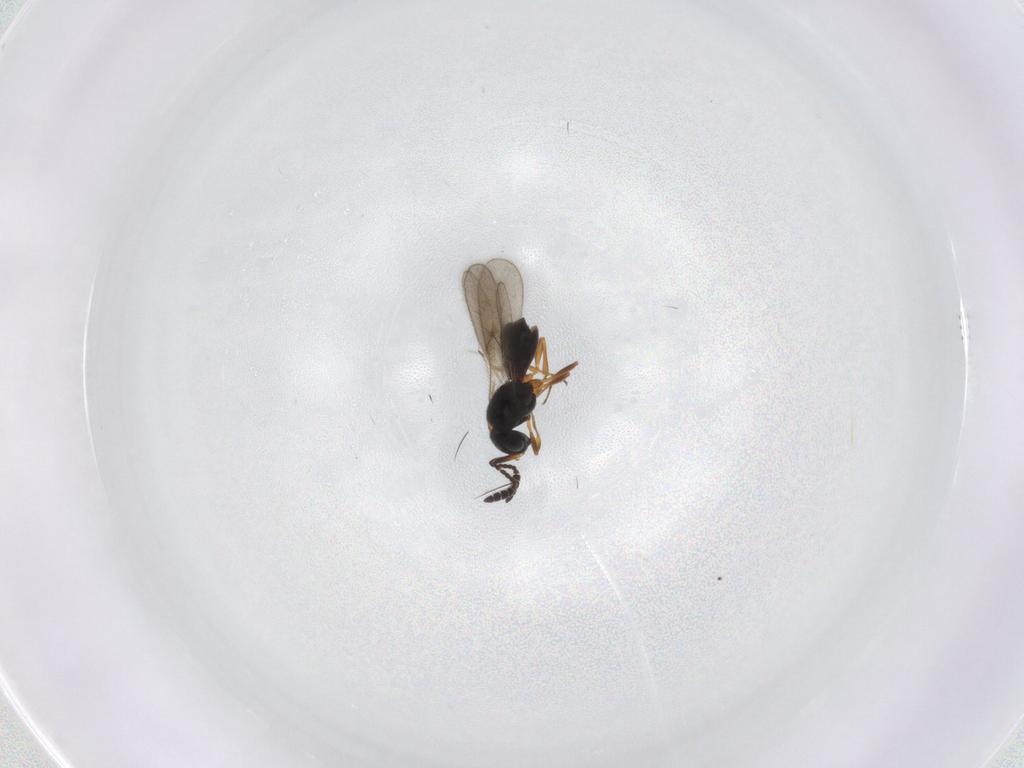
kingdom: Animalia
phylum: Arthropoda
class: Insecta
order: Hymenoptera
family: Scelionidae
